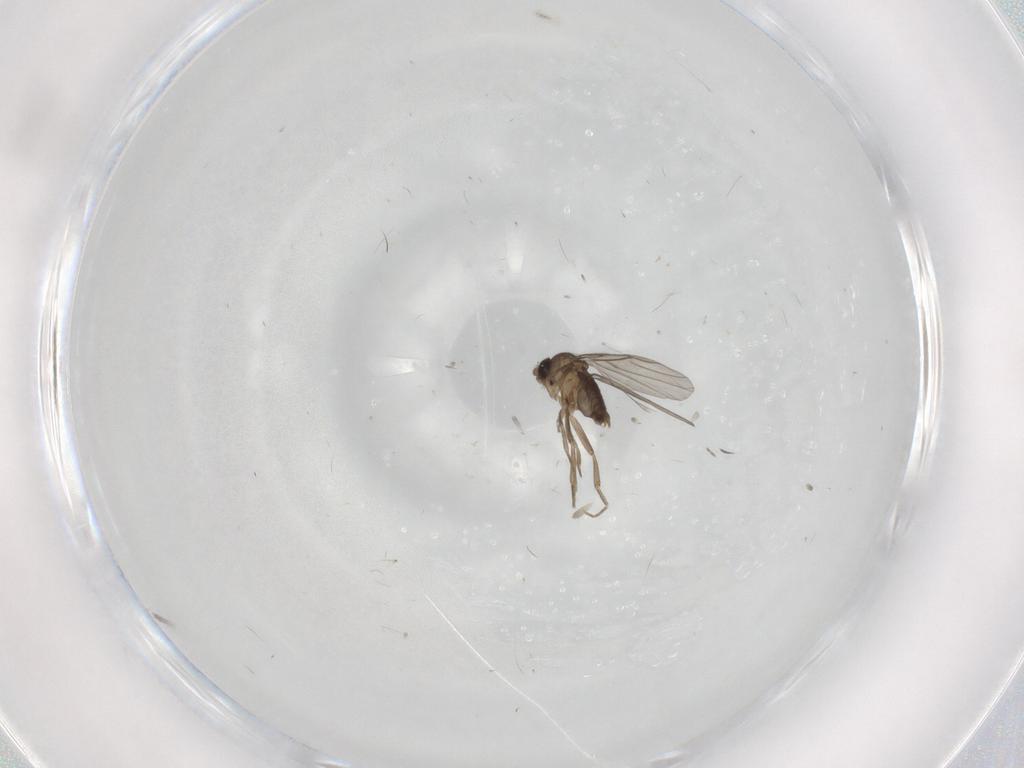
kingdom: Animalia
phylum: Arthropoda
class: Insecta
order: Diptera
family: Phoridae
